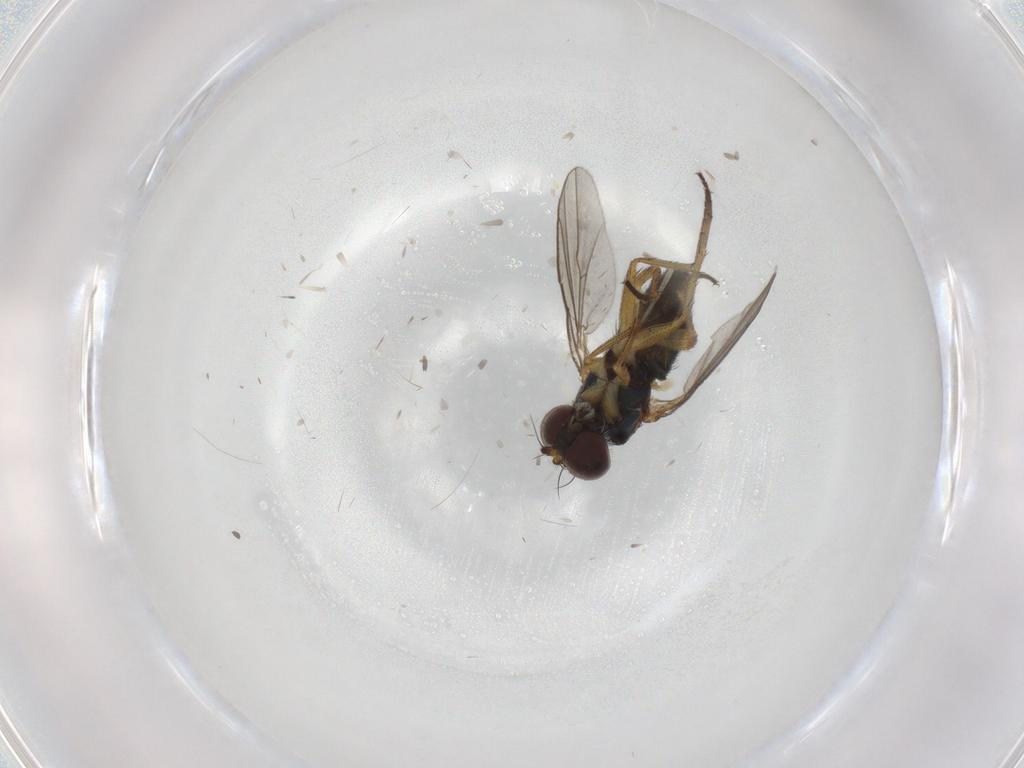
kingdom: Animalia
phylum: Arthropoda
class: Insecta
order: Diptera
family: Chironomidae
